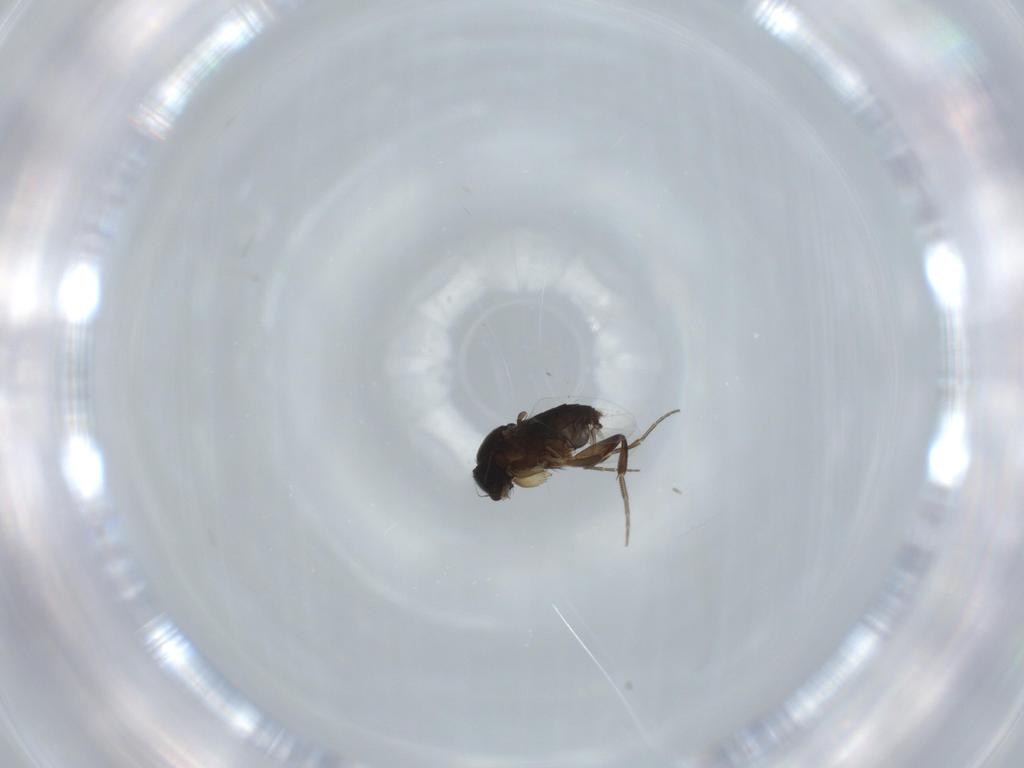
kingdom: Animalia
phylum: Arthropoda
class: Insecta
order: Diptera
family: Phoridae
